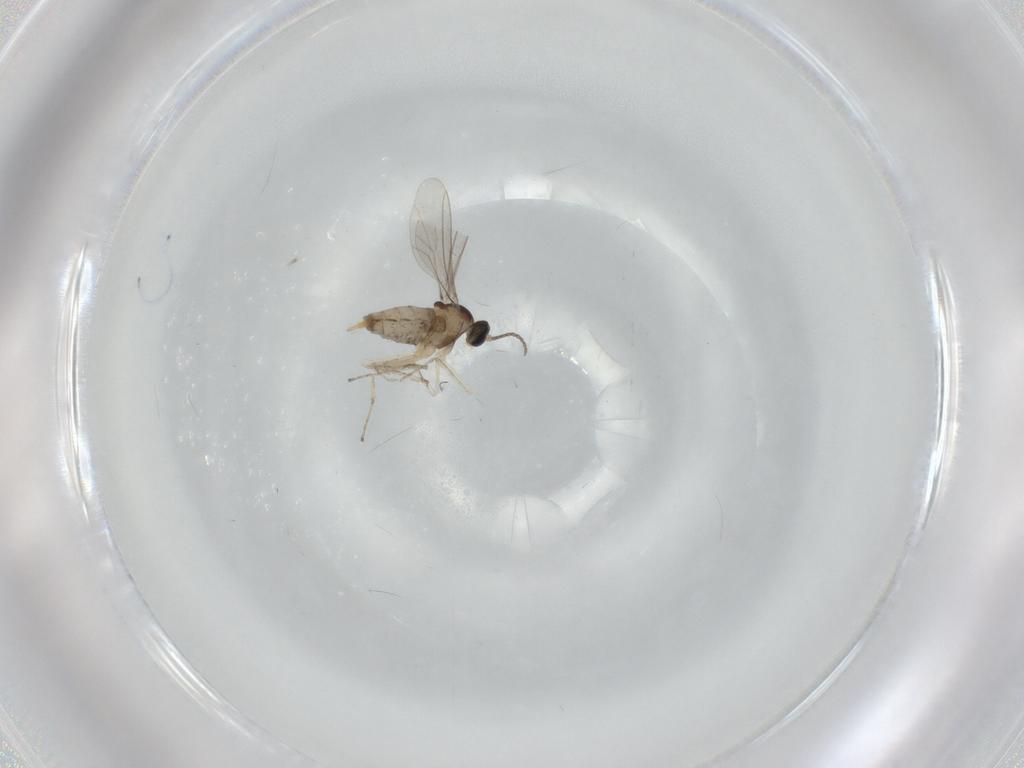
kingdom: Animalia
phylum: Arthropoda
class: Insecta
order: Diptera
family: Cecidomyiidae
